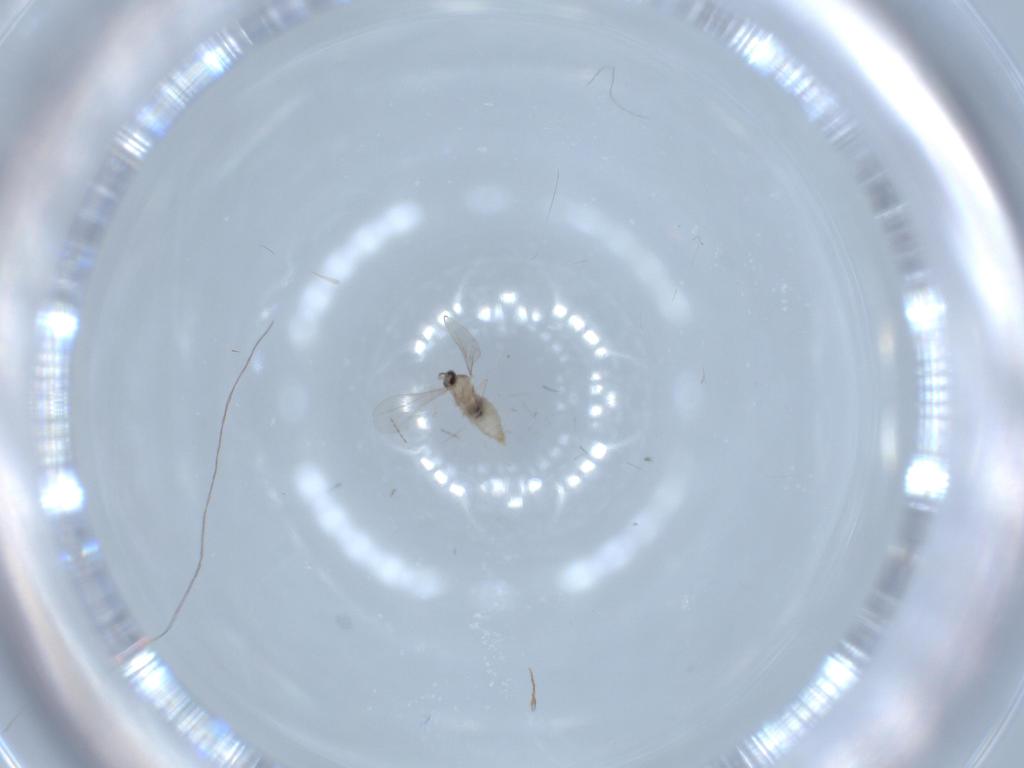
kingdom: Animalia
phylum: Arthropoda
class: Insecta
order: Diptera
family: Cecidomyiidae
